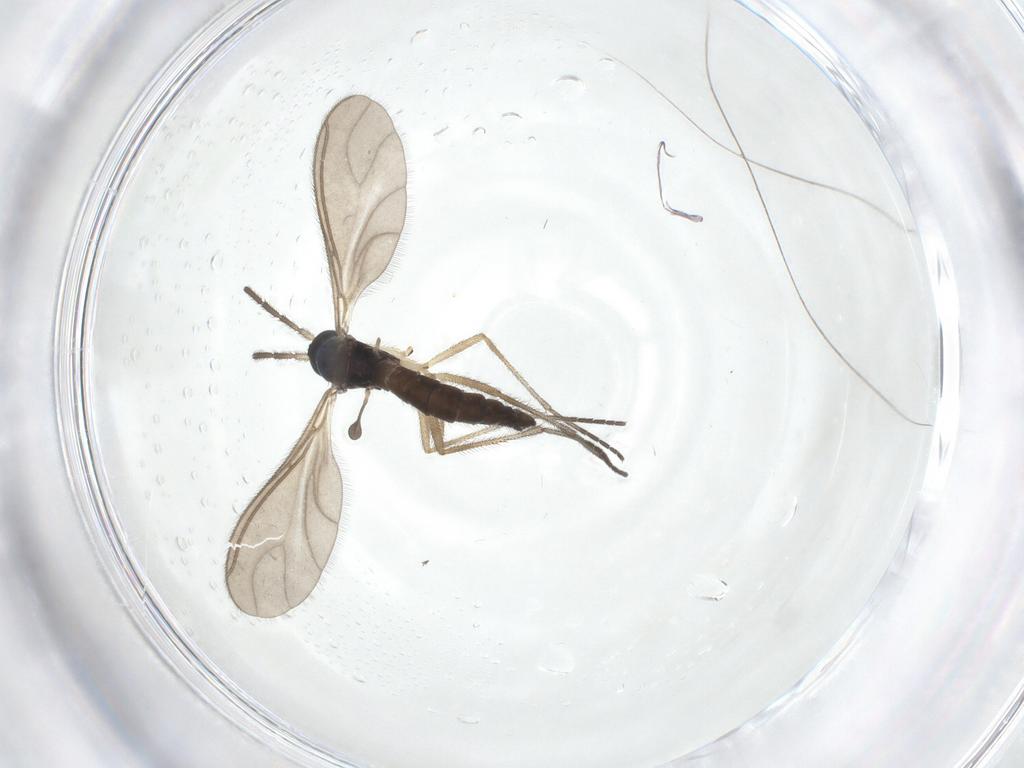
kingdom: Animalia
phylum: Arthropoda
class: Insecta
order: Diptera
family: Sciaridae
